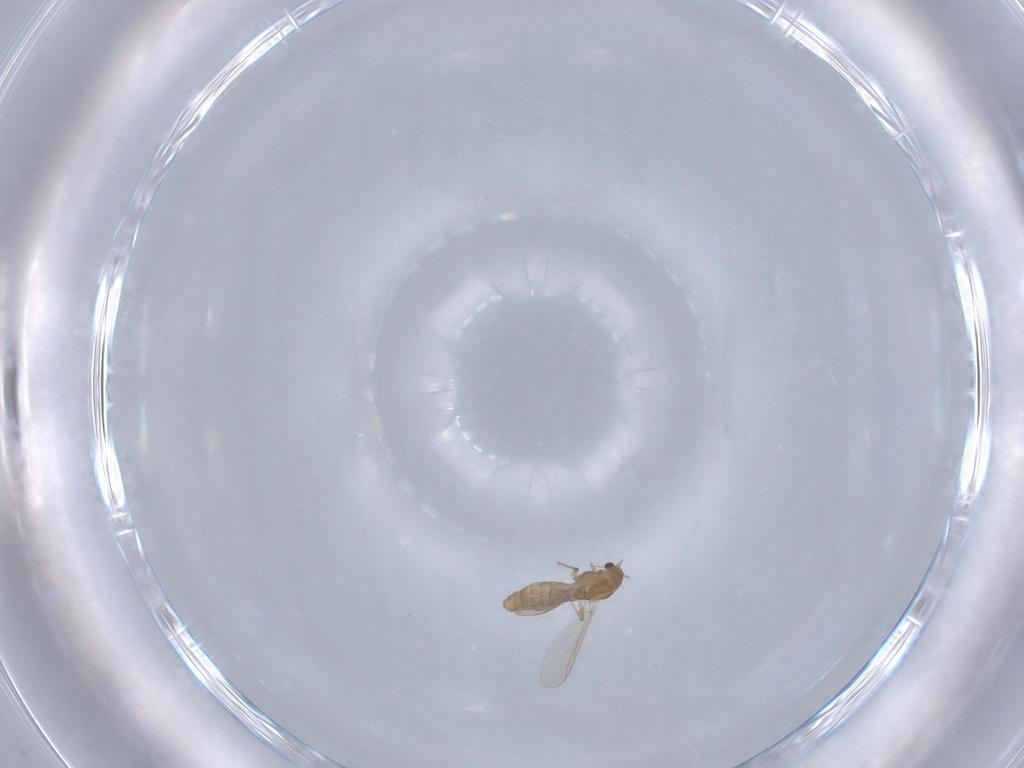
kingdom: Animalia
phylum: Arthropoda
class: Insecta
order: Diptera
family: Chironomidae
